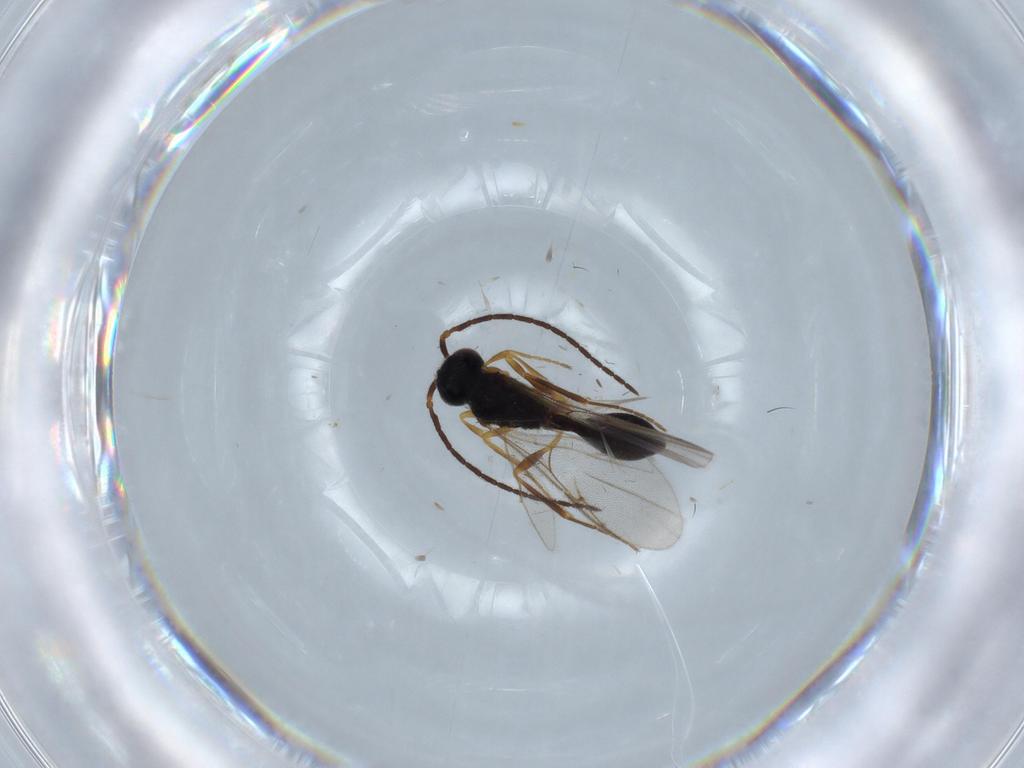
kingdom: Animalia
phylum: Arthropoda
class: Insecta
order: Hymenoptera
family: Diapriidae
